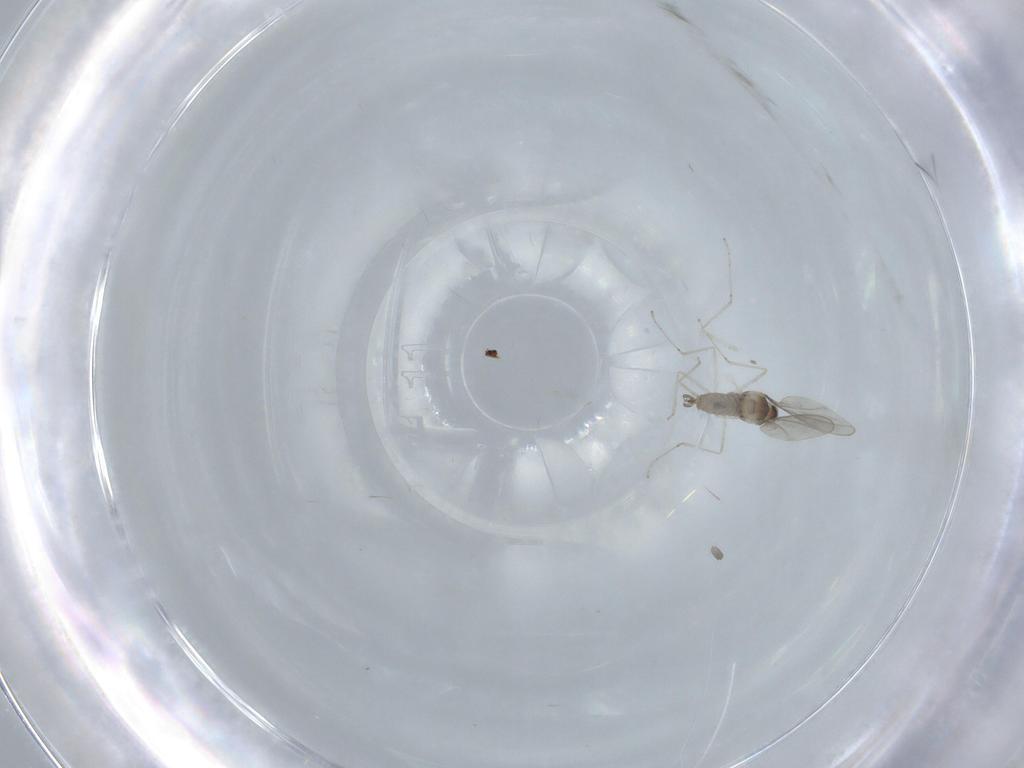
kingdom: Animalia
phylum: Arthropoda
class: Insecta
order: Diptera
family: Cecidomyiidae
